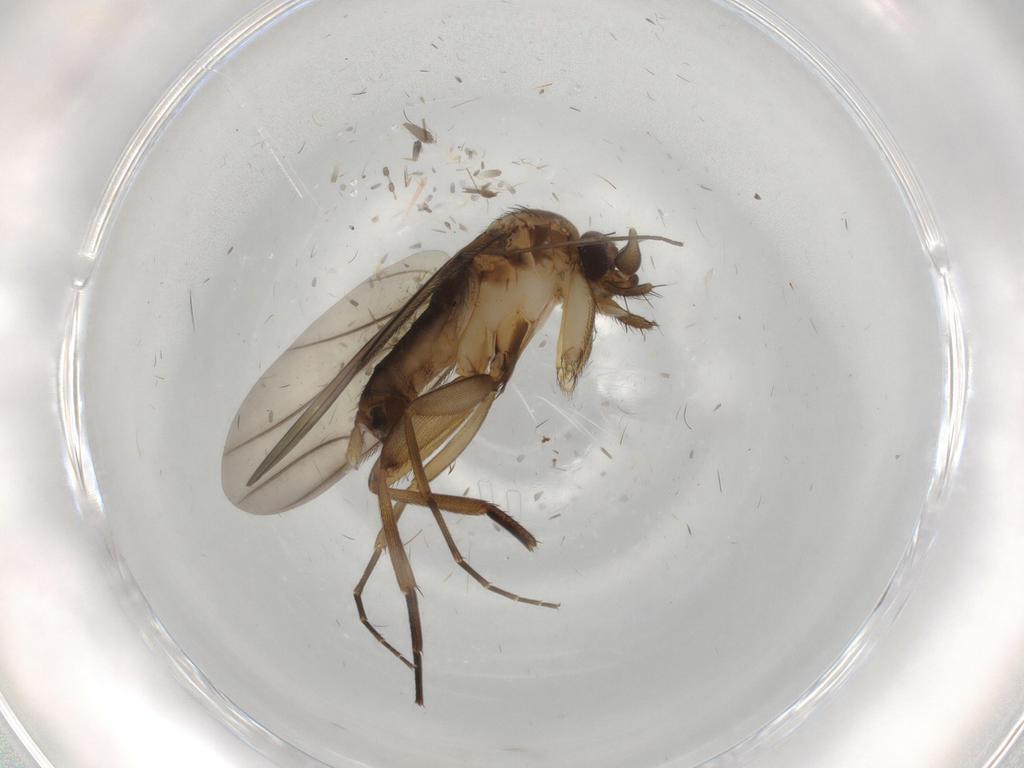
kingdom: Animalia
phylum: Arthropoda
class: Insecta
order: Diptera
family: Phoridae
